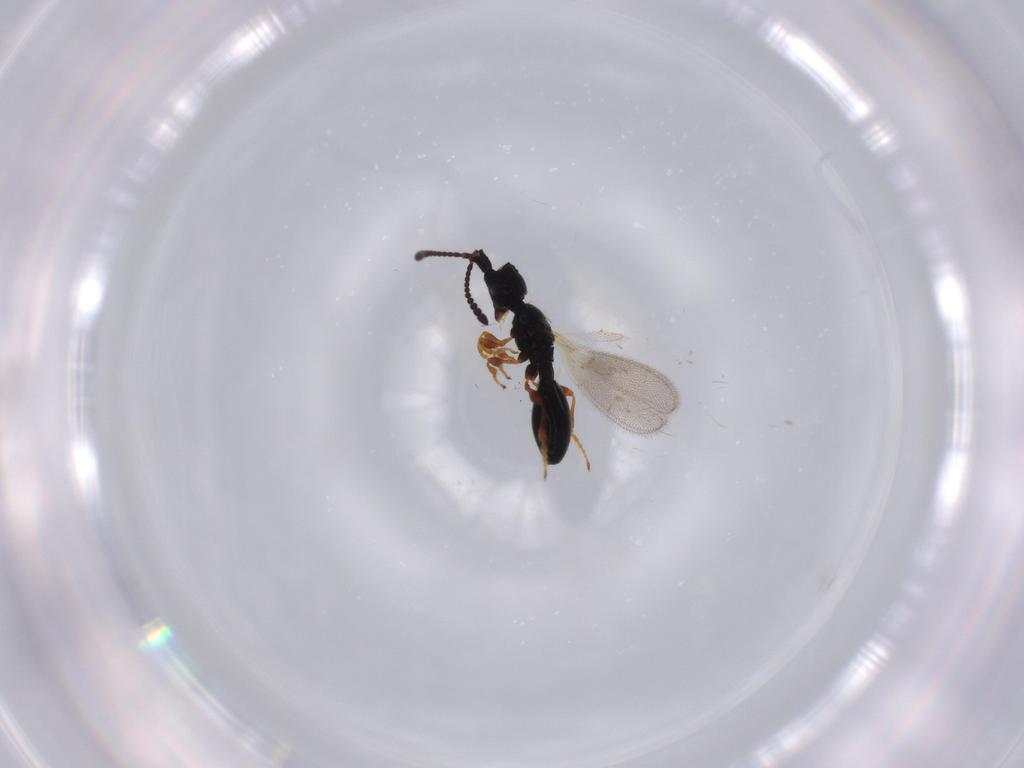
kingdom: Animalia
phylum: Arthropoda
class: Insecta
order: Hymenoptera
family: Diapriidae
